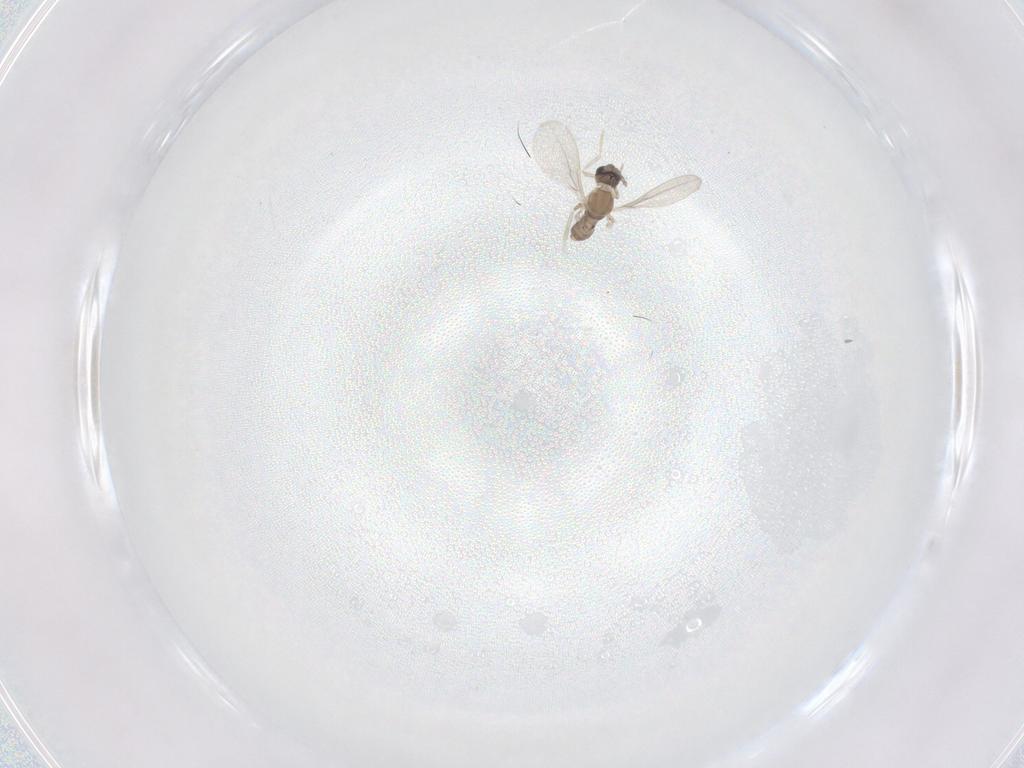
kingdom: Animalia
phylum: Arthropoda
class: Insecta
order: Diptera
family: Cecidomyiidae
